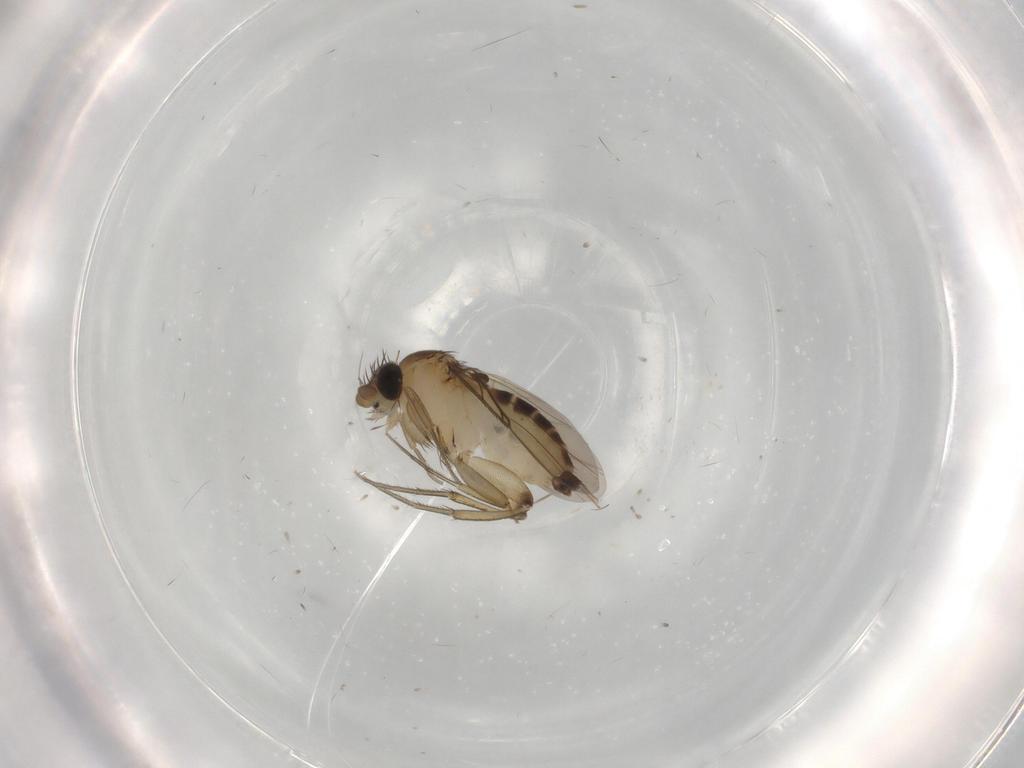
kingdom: Animalia
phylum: Arthropoda
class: Insecta
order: Diptera
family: Phoridae
